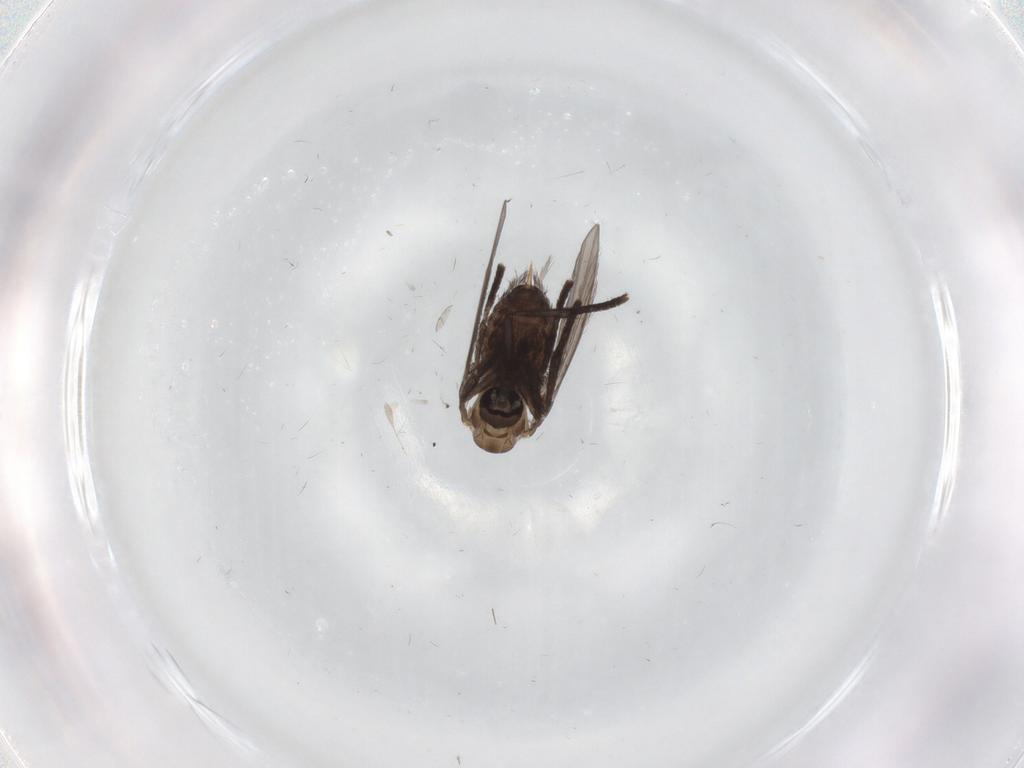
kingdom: Animalia
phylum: Arthropoda
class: Insecta
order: Diptera
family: Psychodidae
